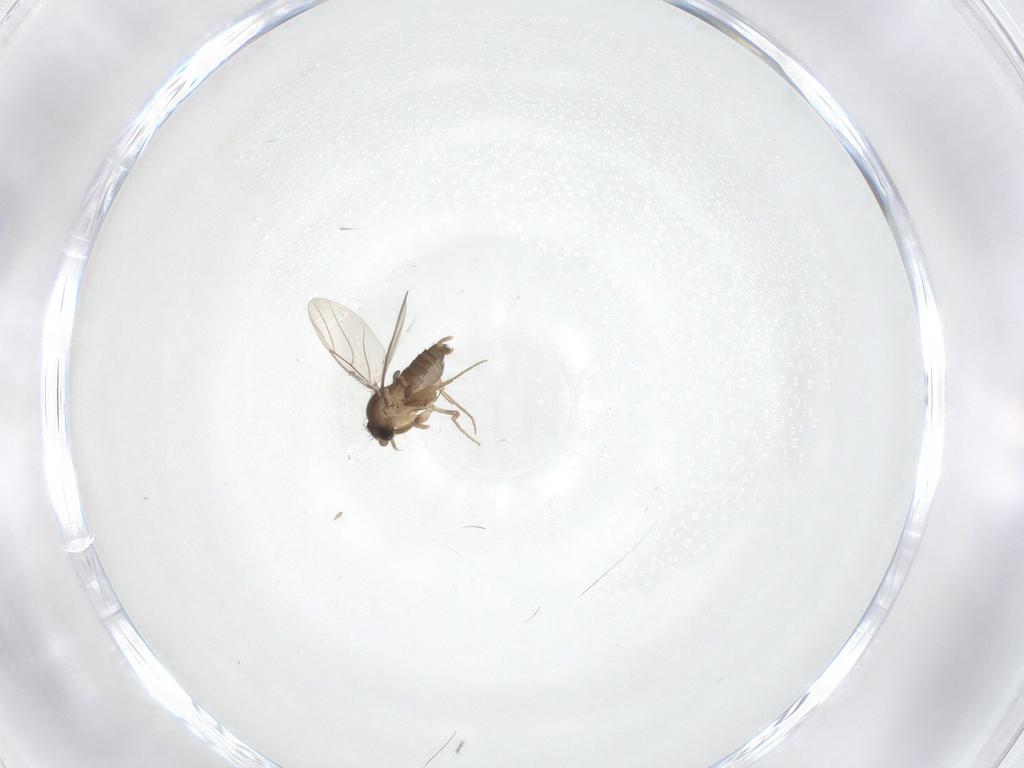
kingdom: Animalia
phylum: Arthropoda
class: Insecta
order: Diptera
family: Phoridae
